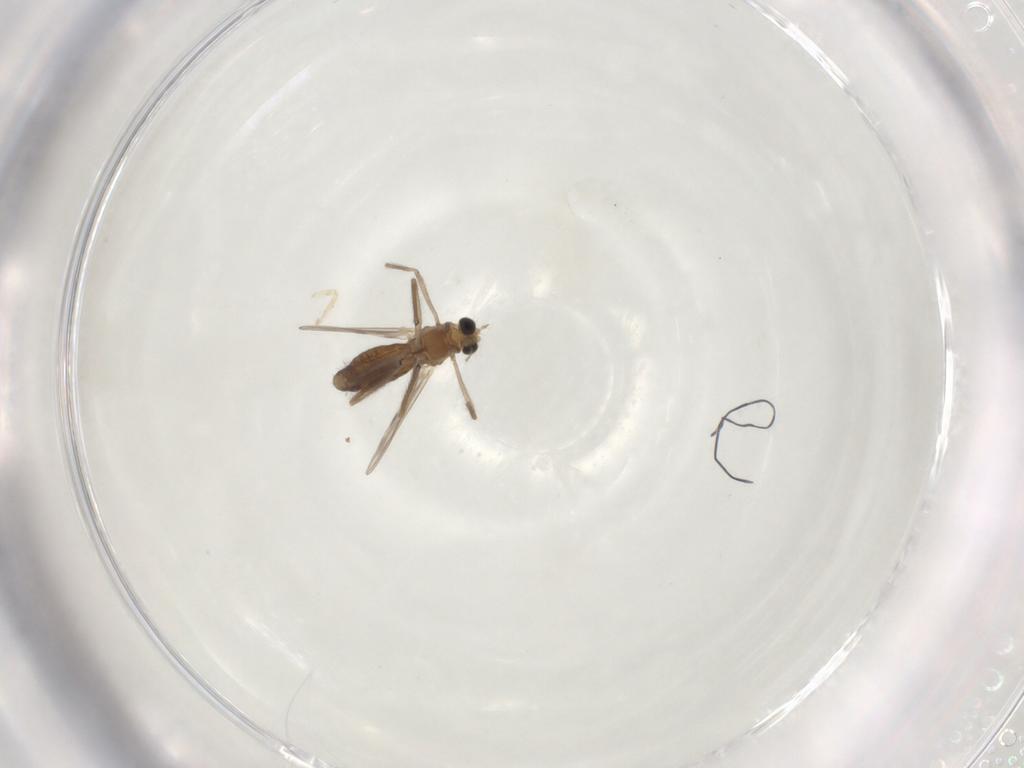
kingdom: Animalia
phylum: Arthropoda
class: Insecta
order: Diptera
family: Chironomidae
